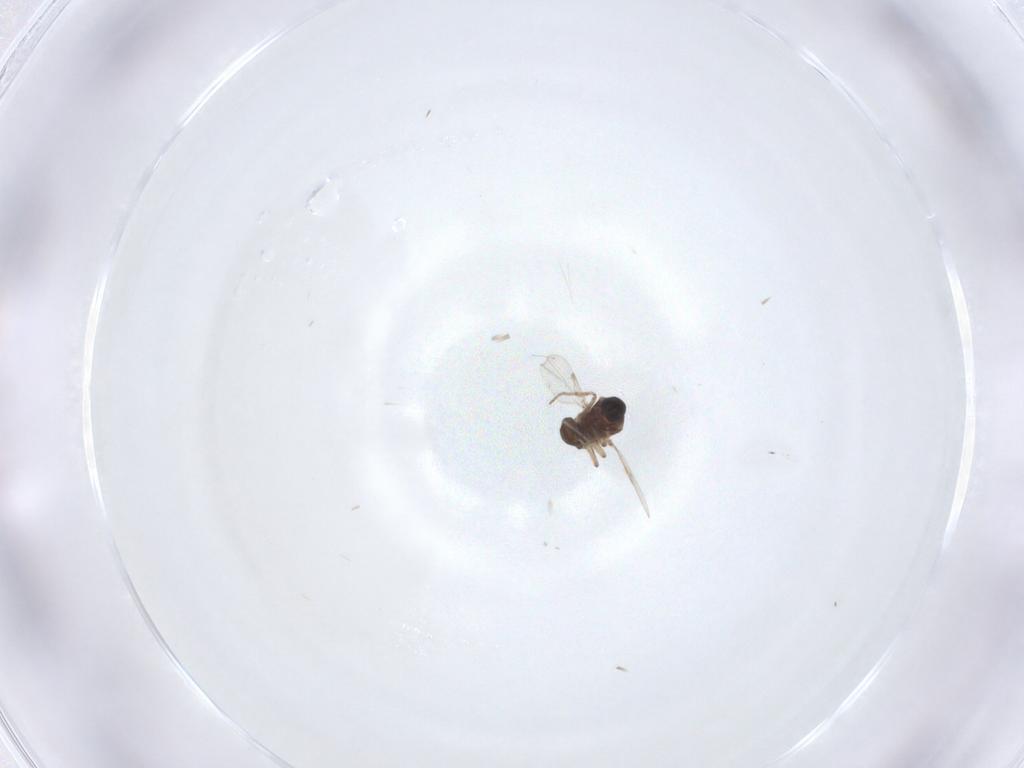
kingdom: Animalia
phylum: Arthropoda
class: Insecta
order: Diptera
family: Ceratopogonidae
